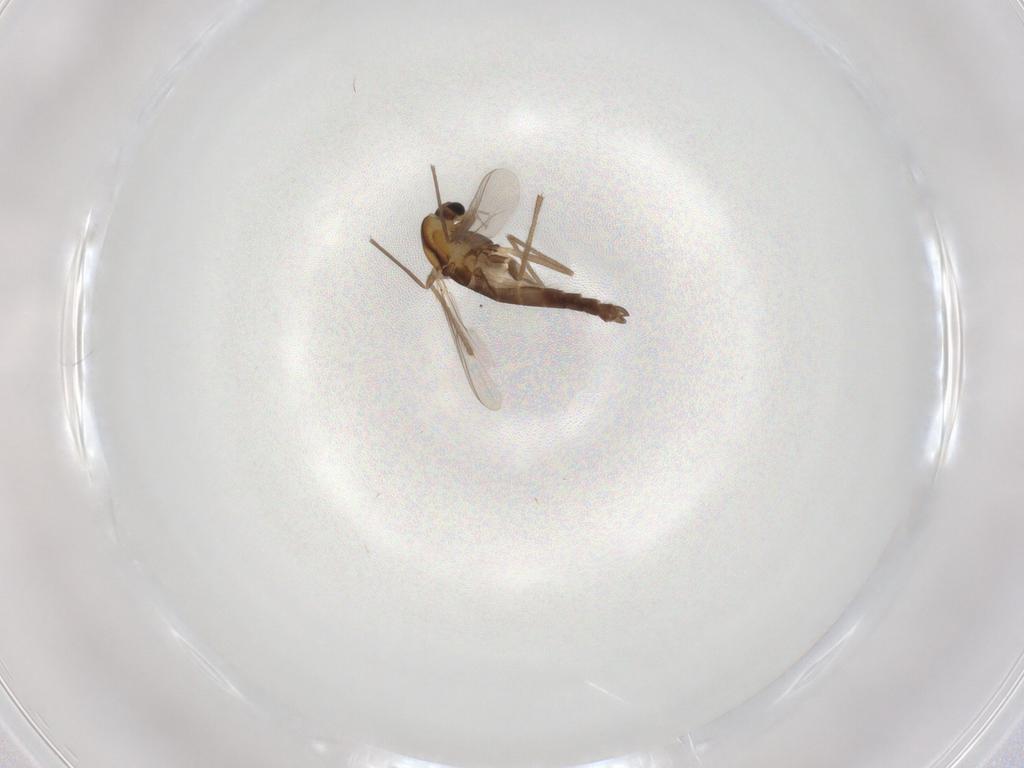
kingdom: Animalia
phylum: Arthropoda
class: Insecta
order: Diptera
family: Chironomidae
